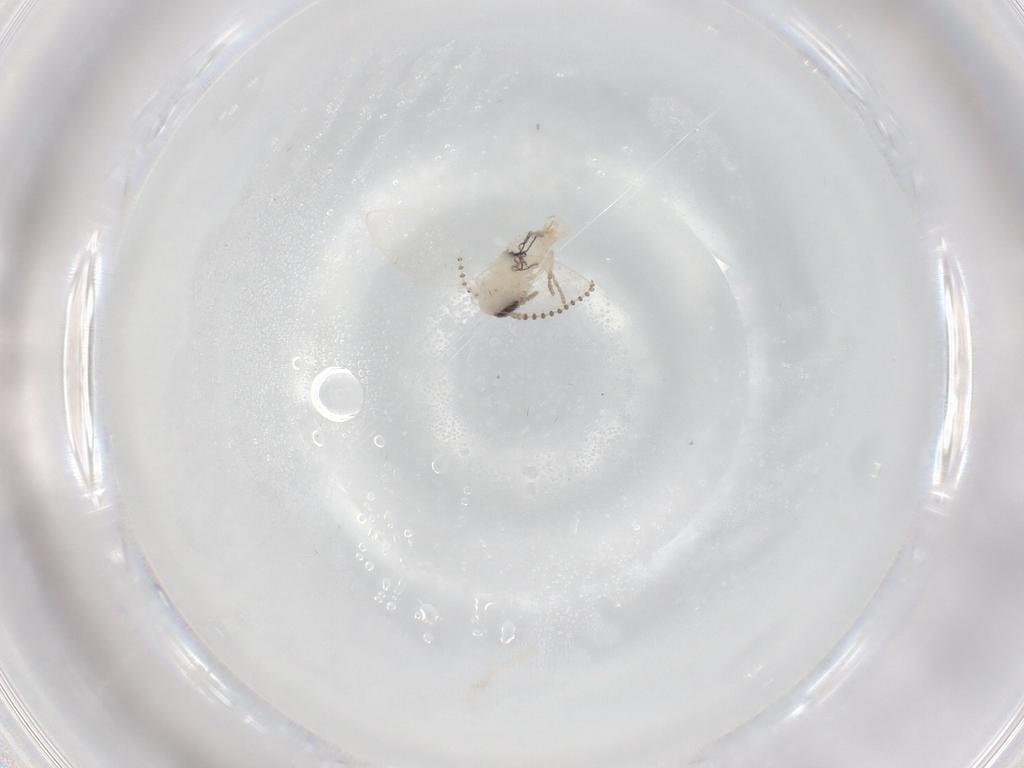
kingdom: Animalia
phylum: Arthropoda
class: Insecta
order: Diptera
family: Psychodidae
